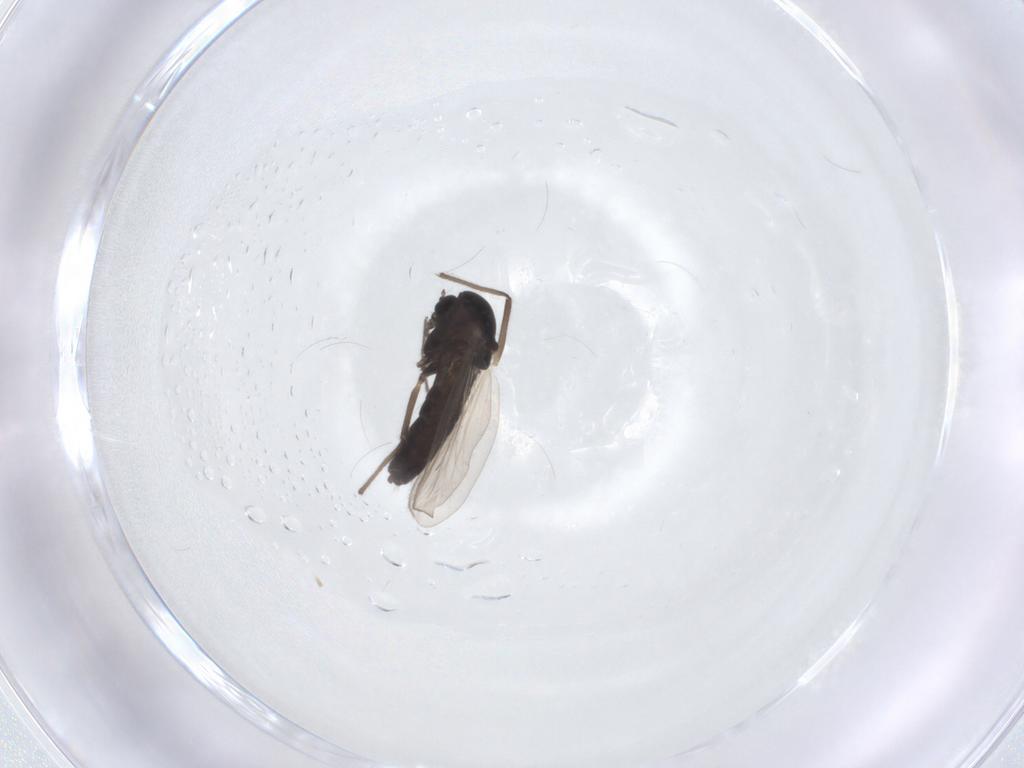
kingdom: Animalia
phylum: Arthropoda
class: Insecta
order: Diptera
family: Chironomidae
